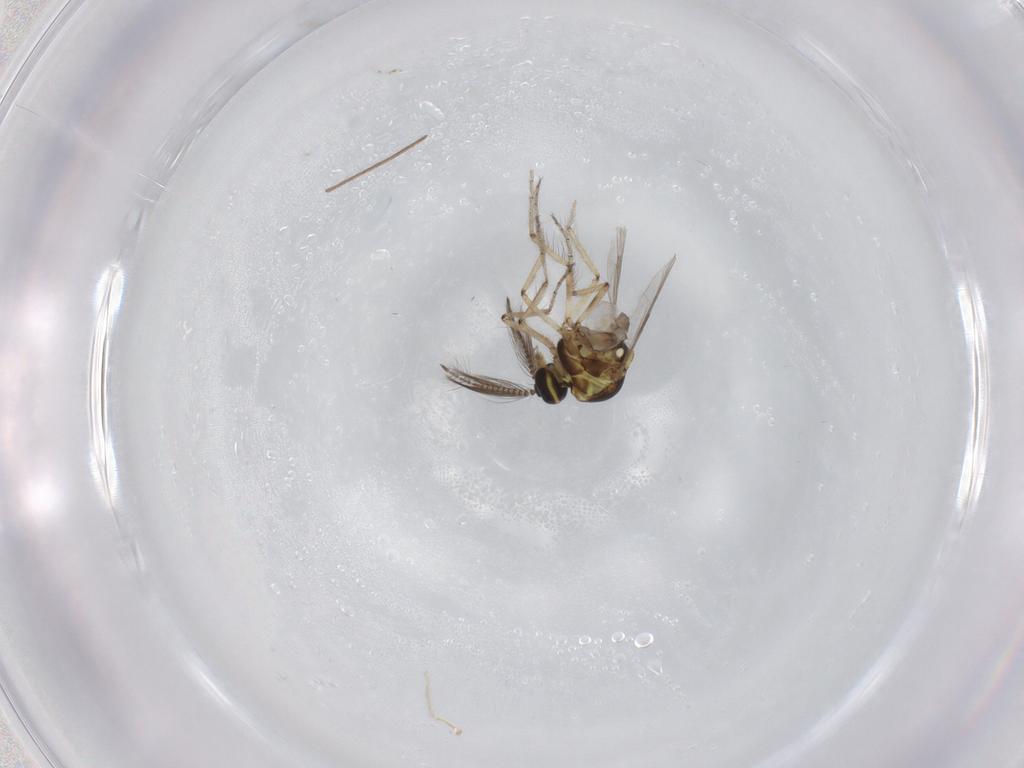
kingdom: Animalia
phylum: Arthropoda
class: Insecta
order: Diptera
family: Ceratopogonidae
